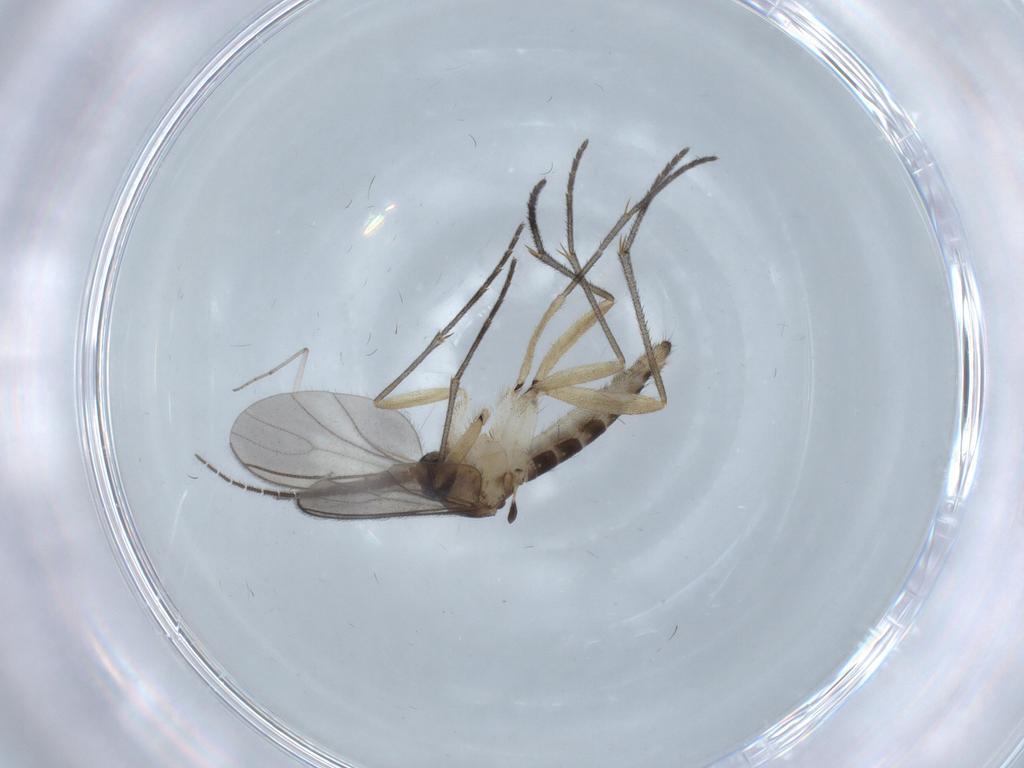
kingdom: Animalia
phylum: Arthropoda
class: Insecta
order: Diptera
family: Sciaridae
